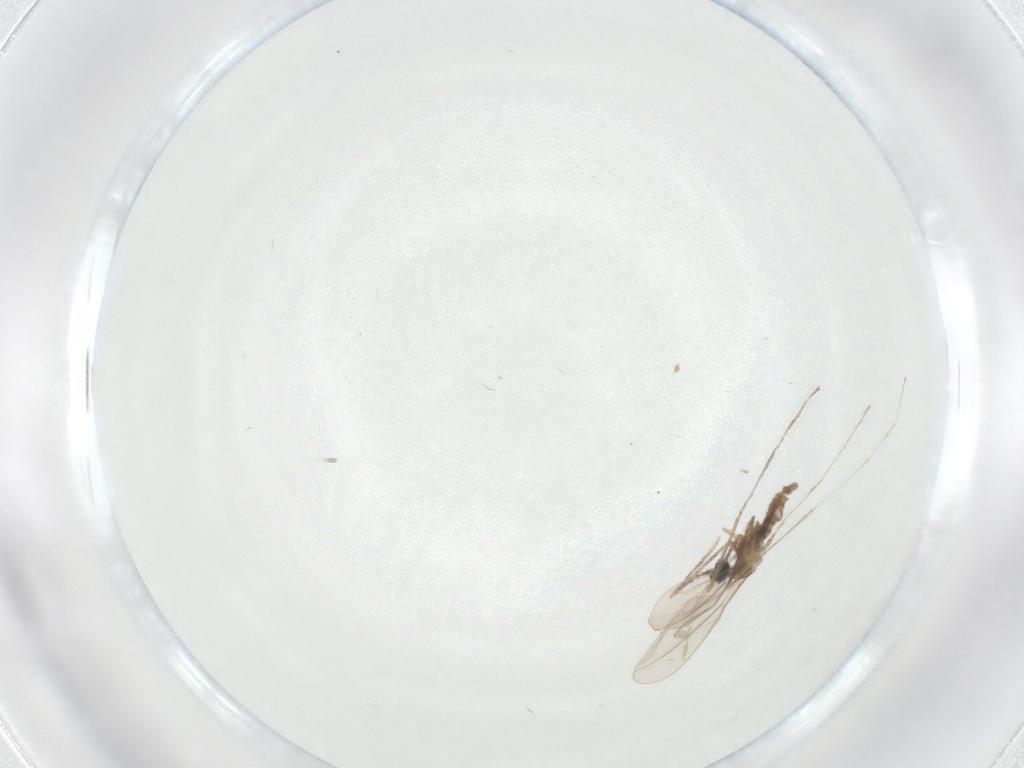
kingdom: Animalia
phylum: Arthropoda
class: Insecta
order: Diptera
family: Cecidomyiidae
